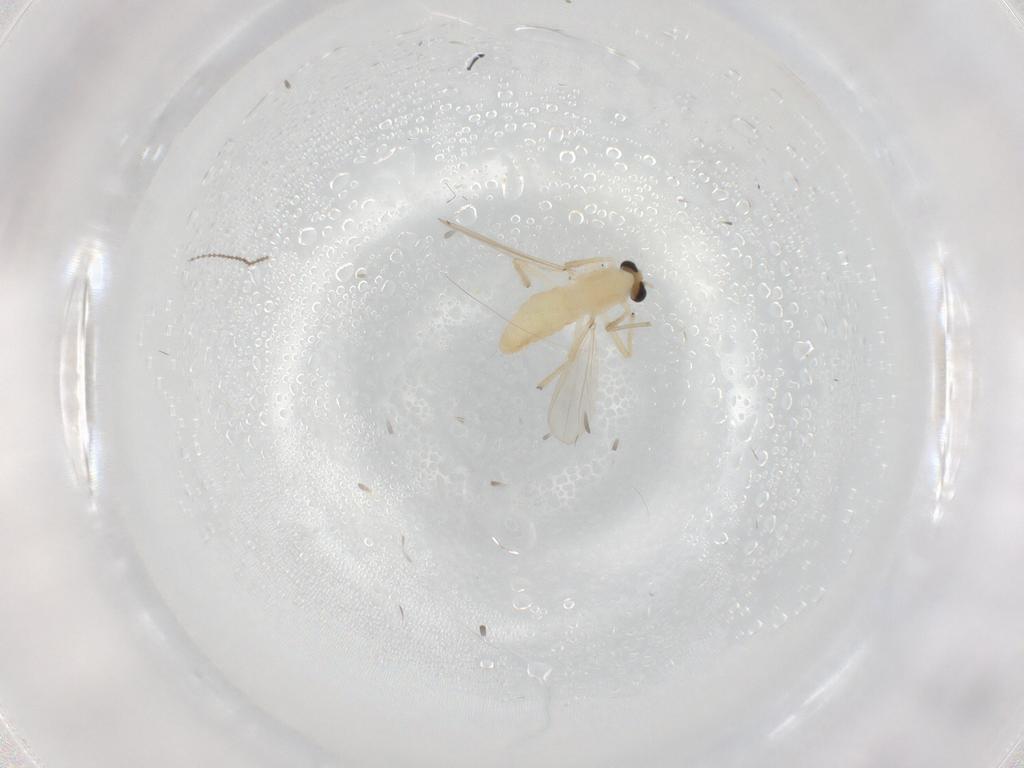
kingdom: Animalia
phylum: Arthropoda
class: Insecta
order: Diptera
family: Chironomidae
